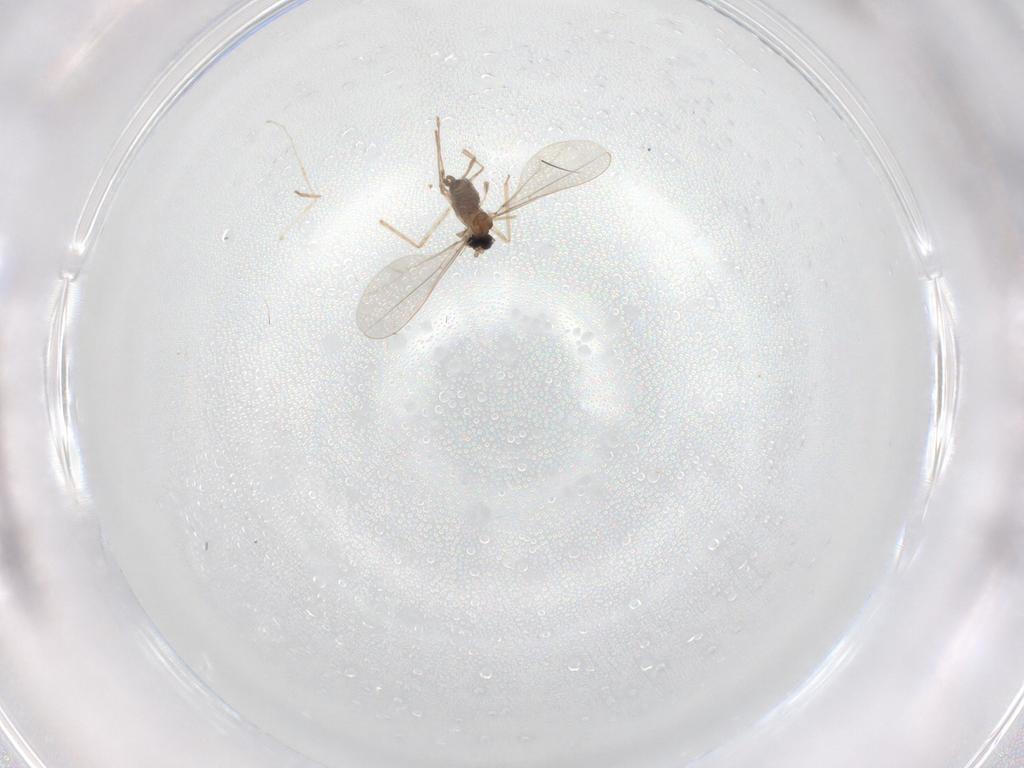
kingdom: Animalia
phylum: Arthropoda
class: Insecta
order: Diptera
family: Cecidomyiidae
